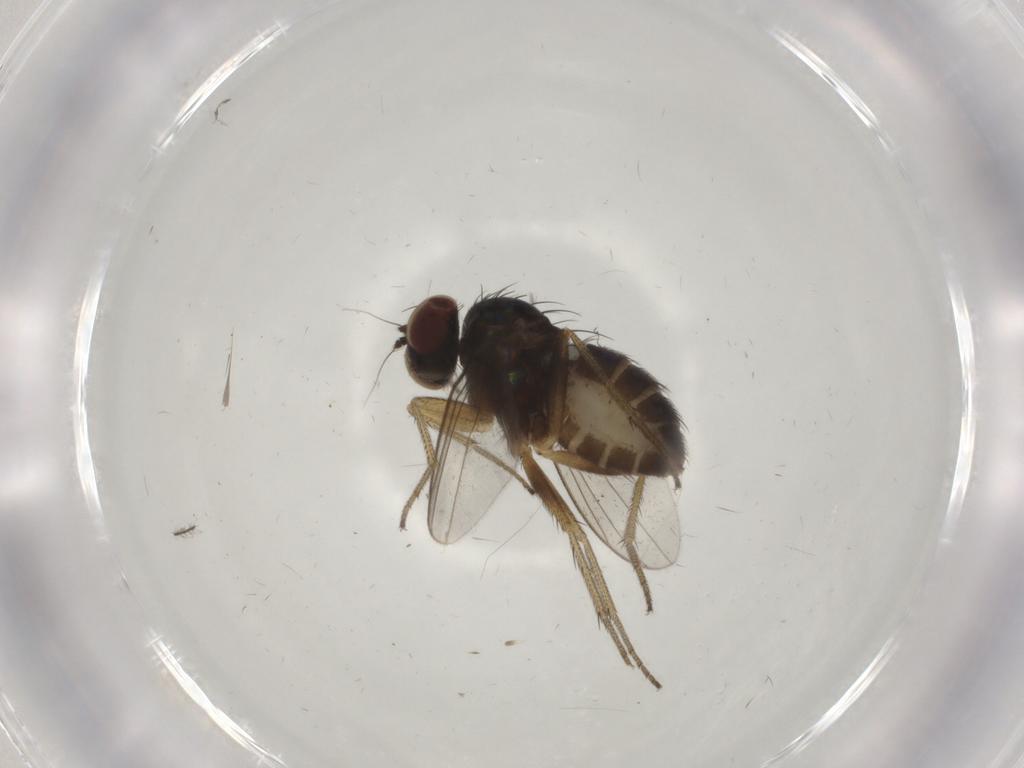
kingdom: Animalia
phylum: Arthropoda
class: Insecta
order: Diptera
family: Dolichopodidae
